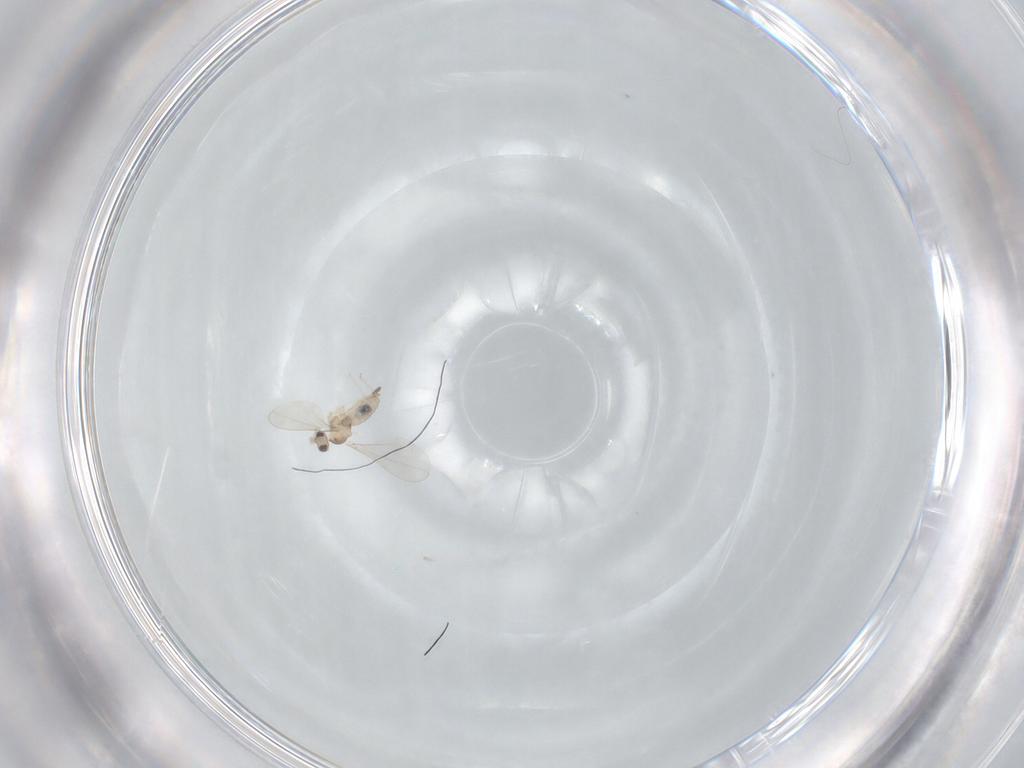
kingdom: Animalia
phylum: Arthropoda
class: Insecta
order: Diptera
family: Cecidomyiidae
